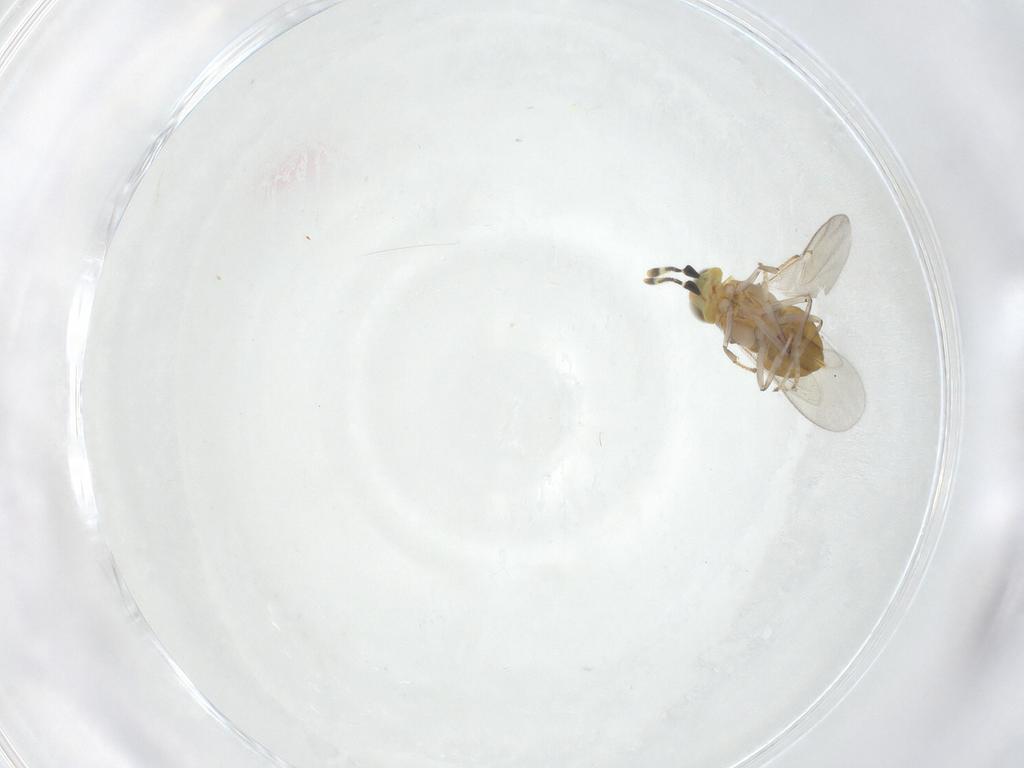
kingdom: Animalia
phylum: Arthropoda
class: Insecta
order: Hymenoptera
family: Encyrtidae
